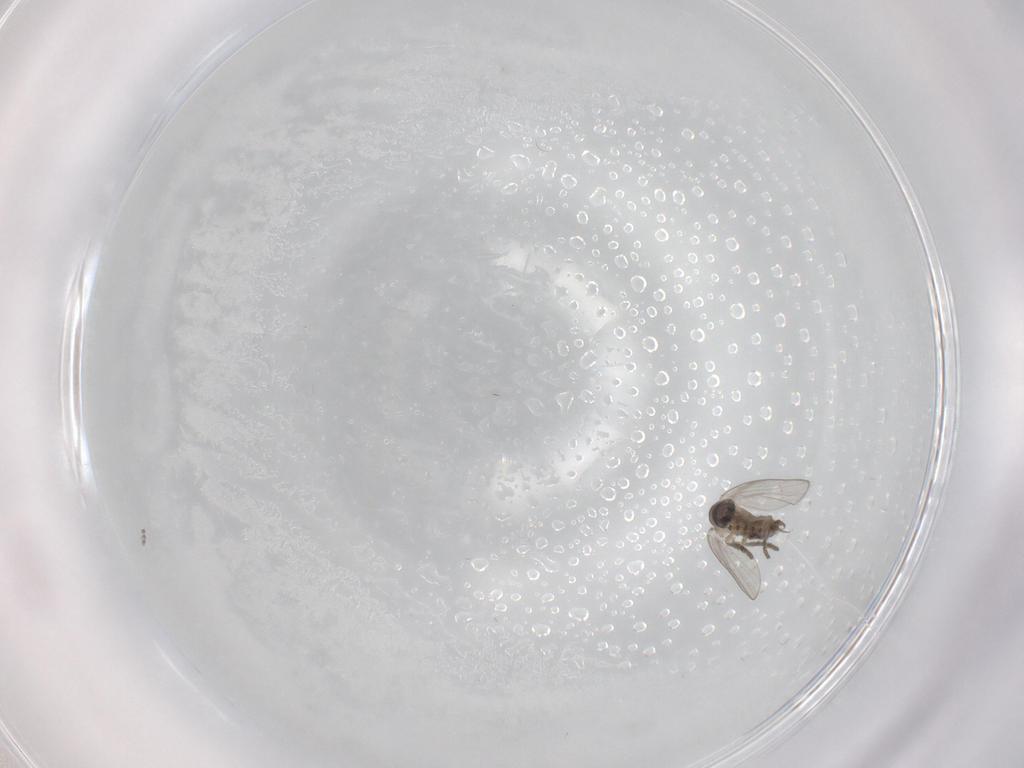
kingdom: Animalia
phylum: Arthropoda
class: Insecta
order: Diptera
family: Psychodidae
